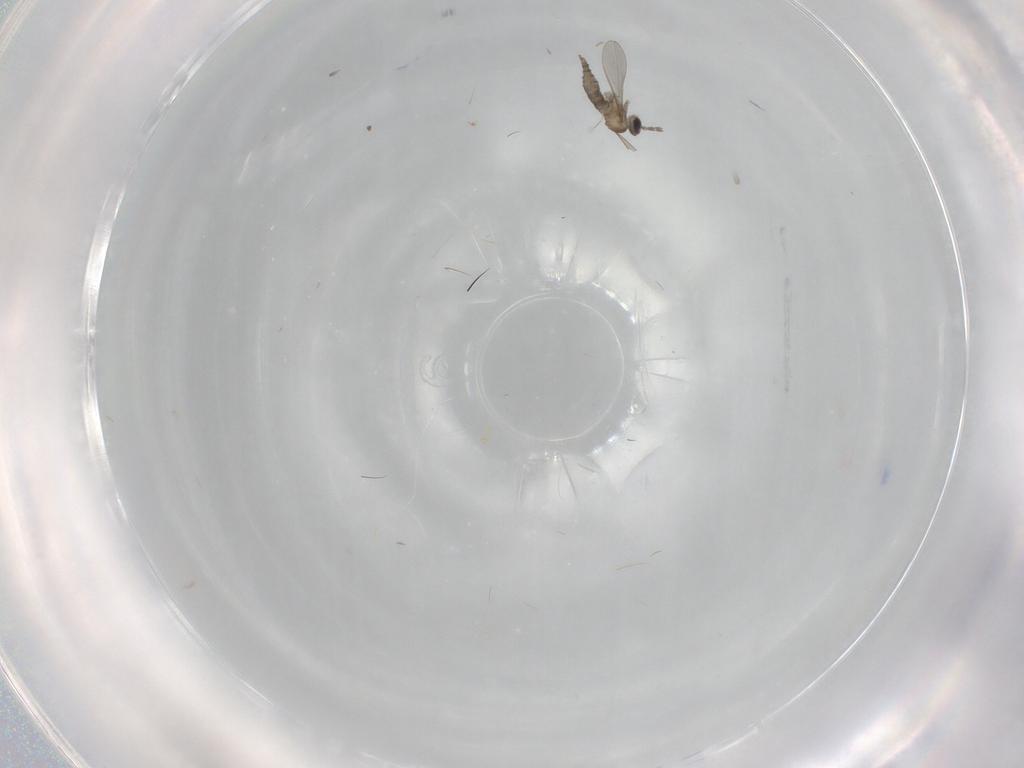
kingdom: Animalia
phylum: Arthropoda
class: Insecta
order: Diptera
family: Cecidomyiidae
